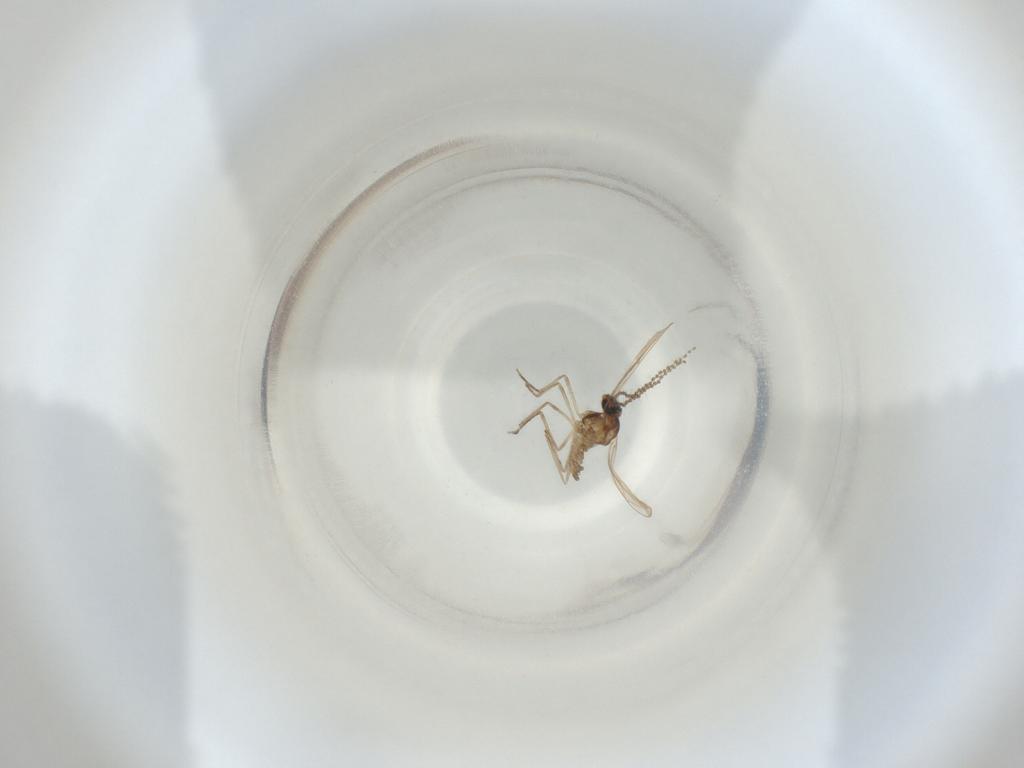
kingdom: Animalia
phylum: Arthropoda
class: Insecta
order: Diptera
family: Cecidomyiidae
